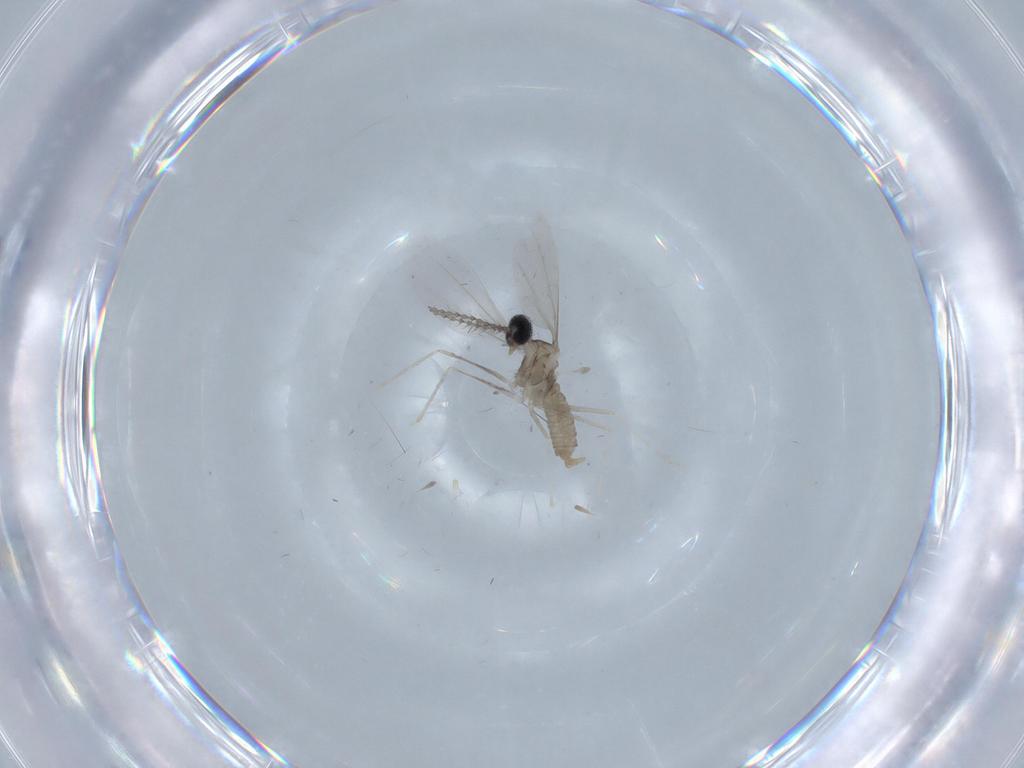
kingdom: Animalia
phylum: Arthropoda
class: Insecta
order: Diptera
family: Cecidomyiidae
